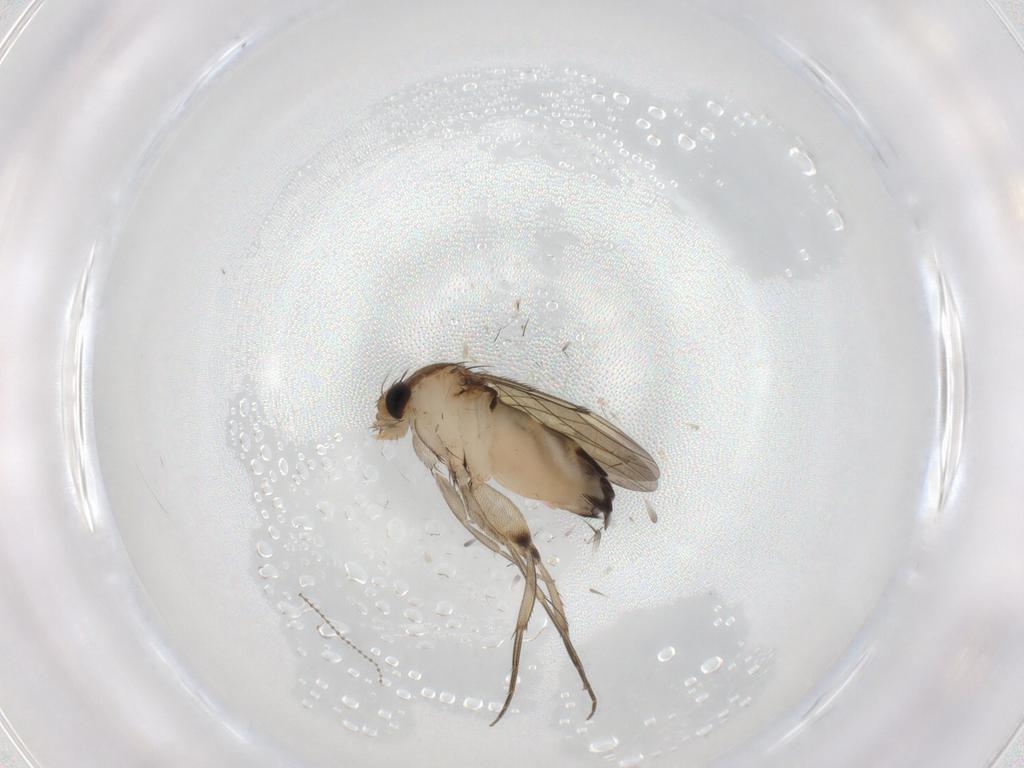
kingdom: Animalia
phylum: Arthropoda
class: Insecta
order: Diptera
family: Phoridae
